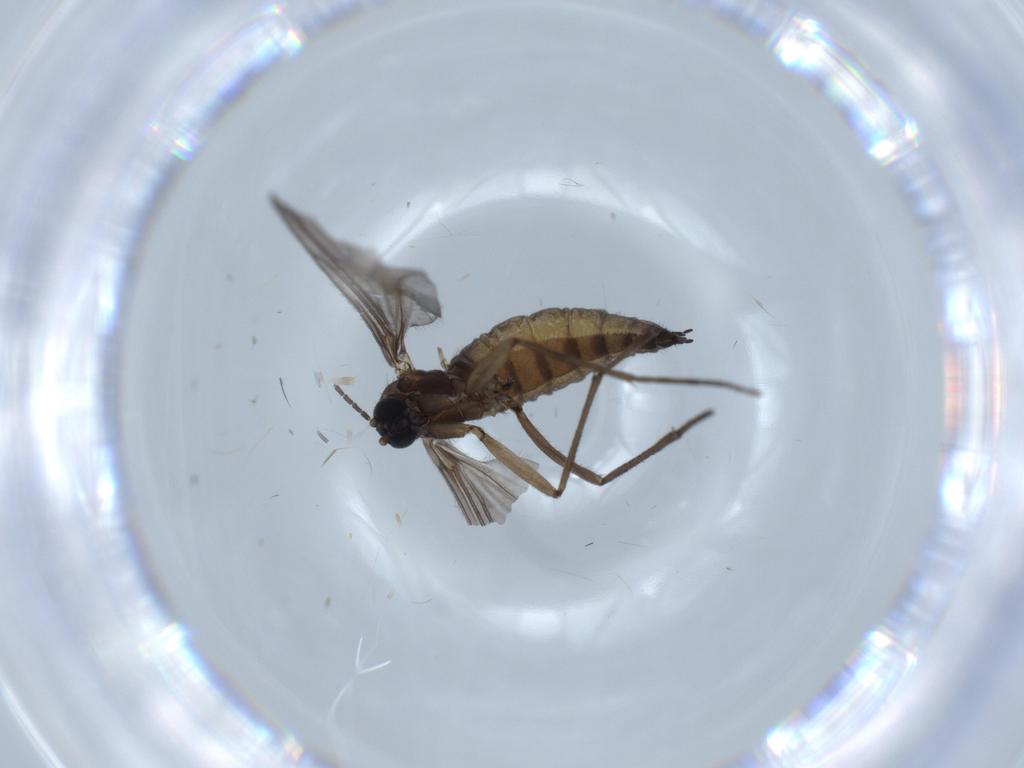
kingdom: Animalia
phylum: Arthropoda
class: Insecta
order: Diptera
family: Sciaridae
